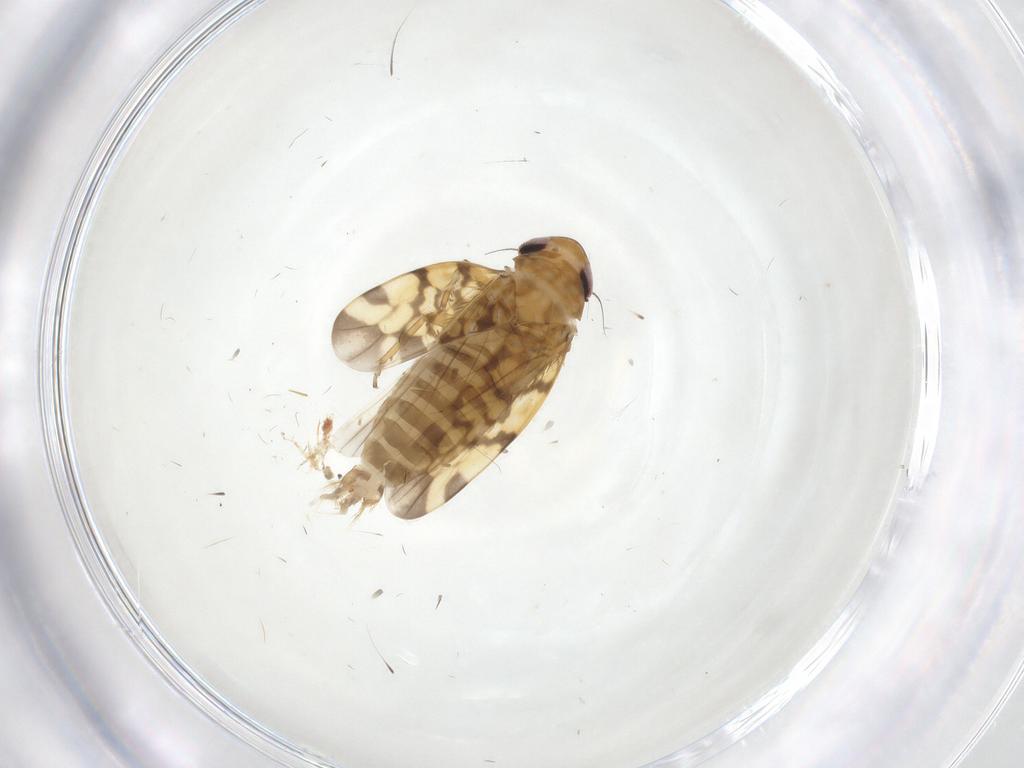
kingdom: Animalia
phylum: Arthropoda
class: Insecta
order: Hemiptera
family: Cicadellidae
